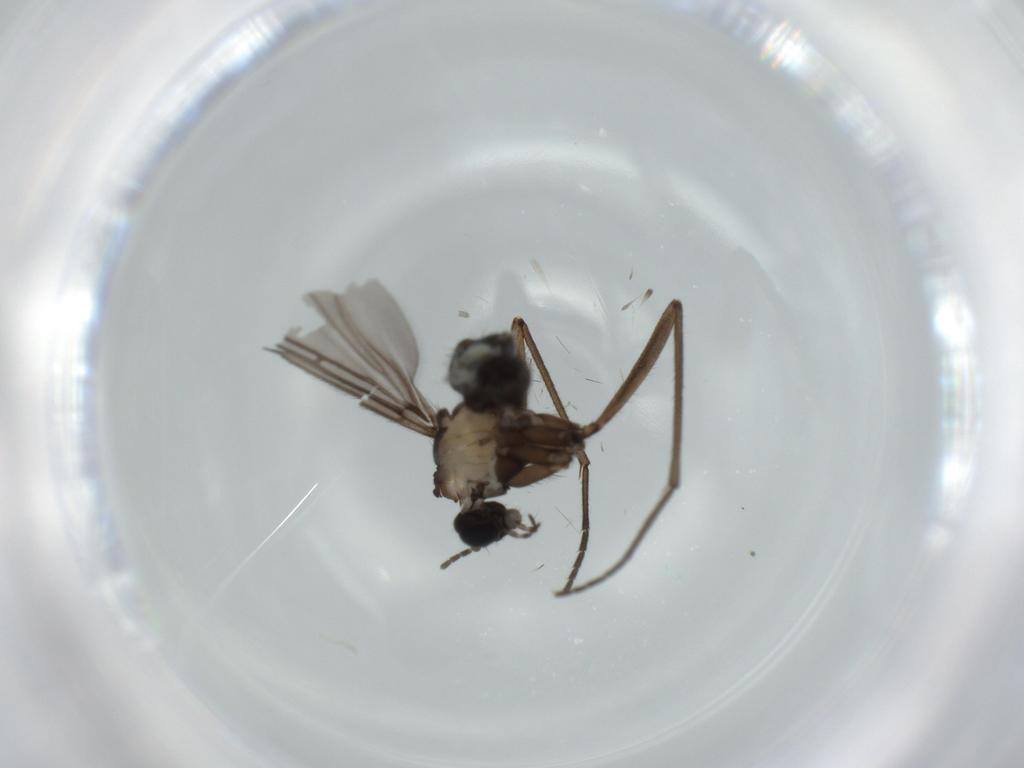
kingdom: Animalia
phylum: Arthropoda
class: Insecta
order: Diptera
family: Sciaridae
